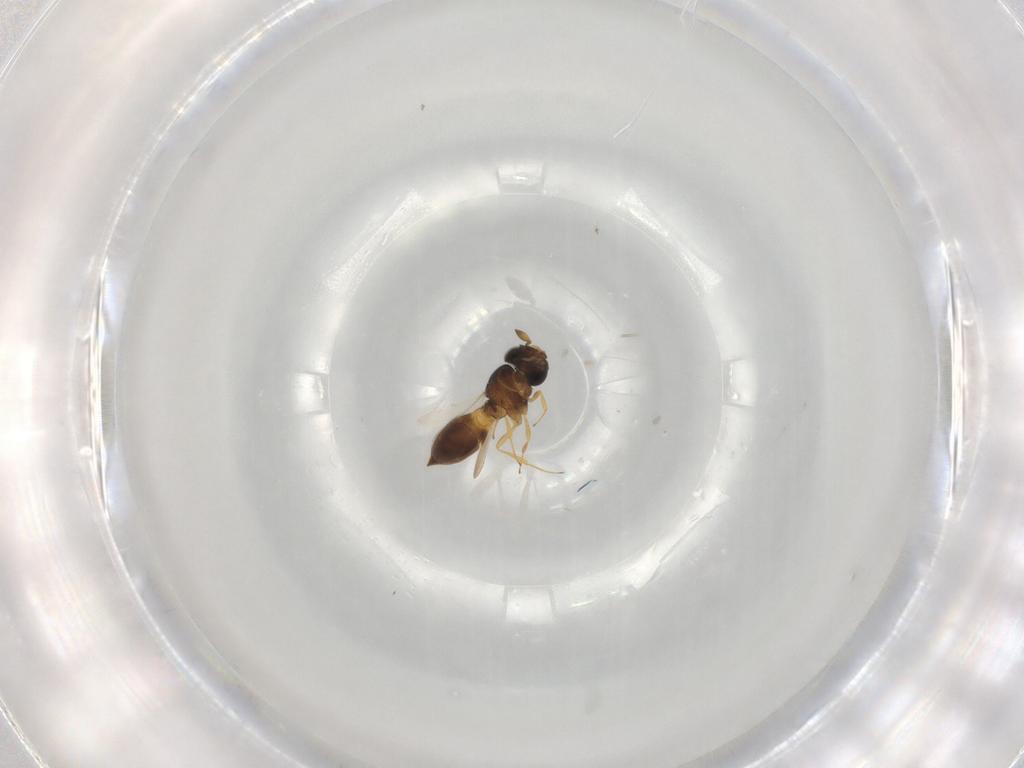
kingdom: Animalia
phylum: Arthropoda
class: Insecta
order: Hymenoptera
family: Scelionidae
